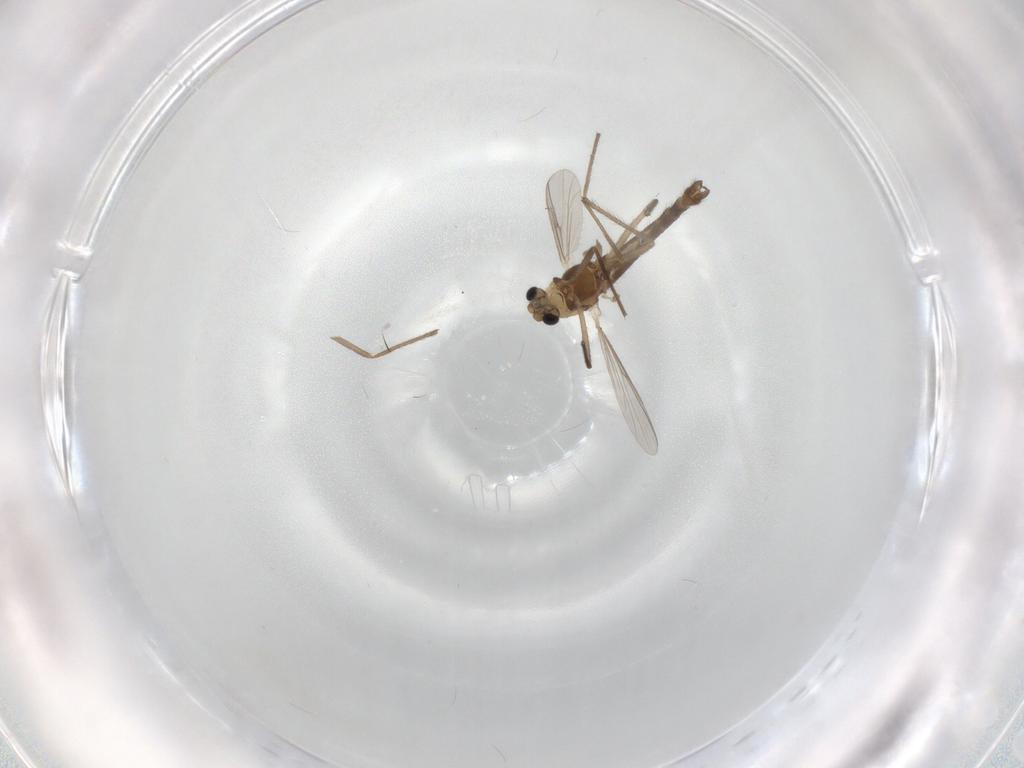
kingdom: Animalia
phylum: Arthropoda
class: Insecta
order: Diptera
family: Chironomidae
